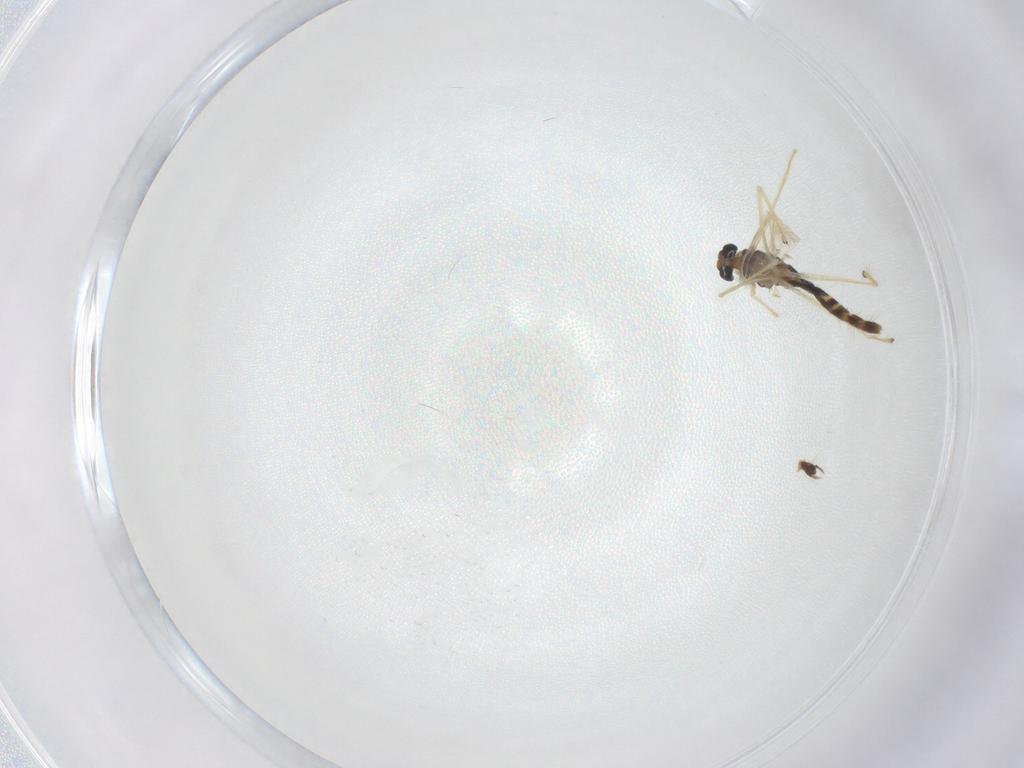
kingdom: Animalia
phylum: Arthropoda
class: Insecta
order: Diptera
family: Chironomidae
